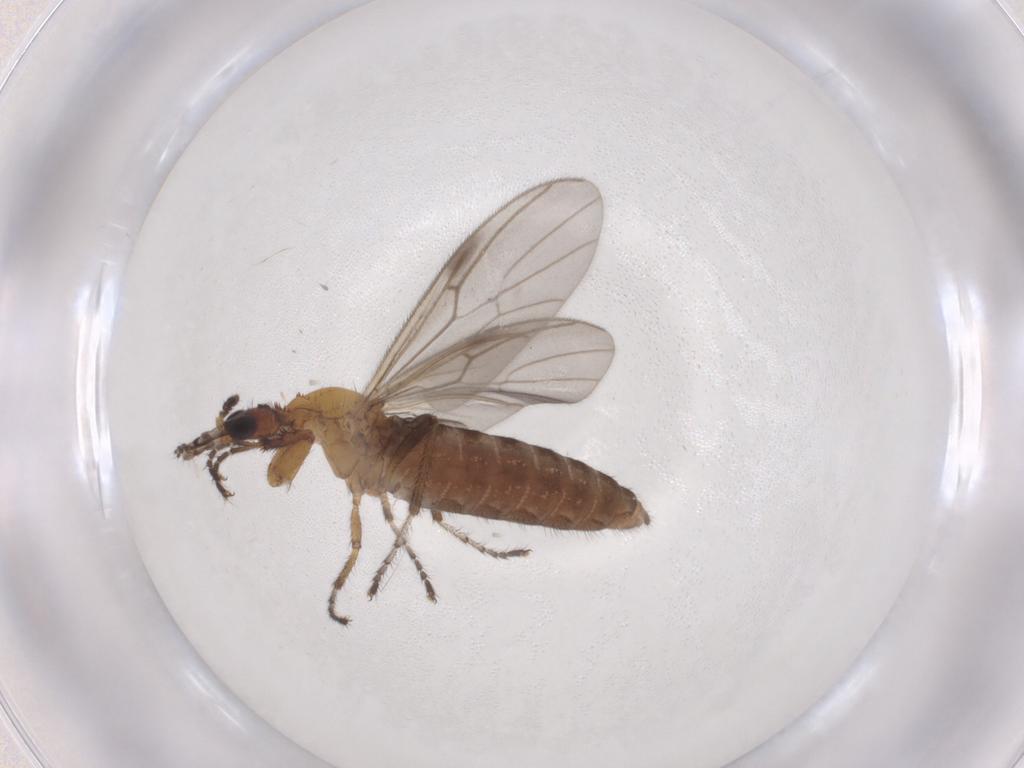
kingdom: Animalia
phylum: Arthropoda
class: Insecta
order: Diptera
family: Bibionidae
